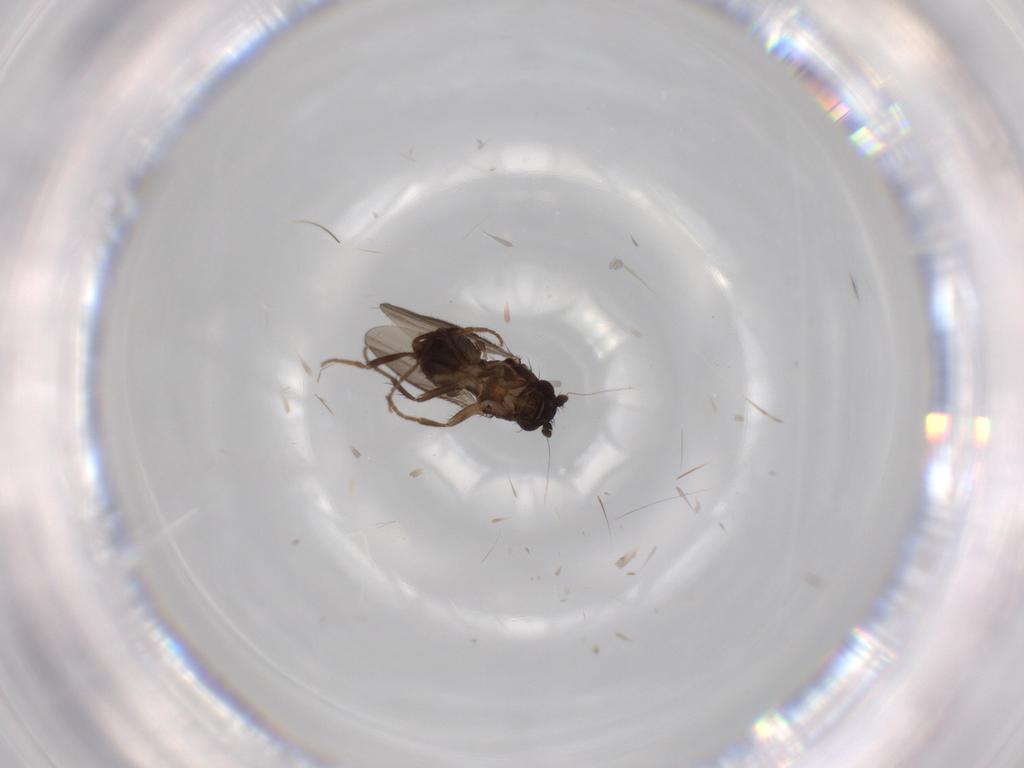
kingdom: Animalia
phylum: Arthropoda
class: Insecta
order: Diptera
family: Sphaeroceridae
